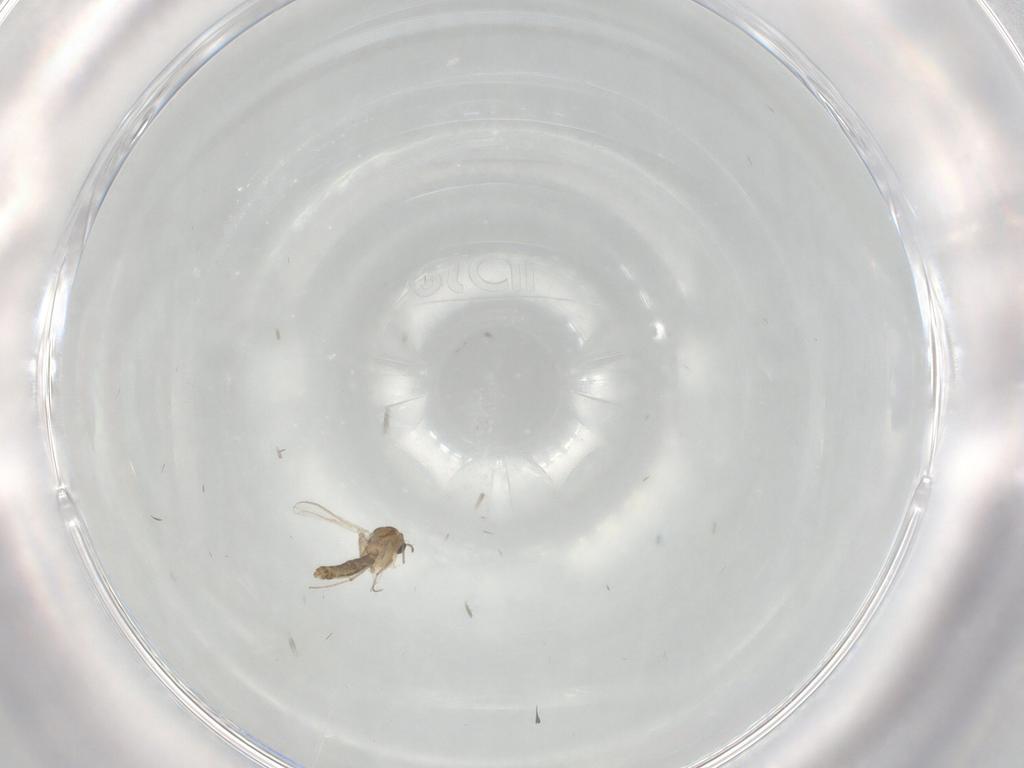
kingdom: Animalia
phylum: Arthropoda
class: Insecta
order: Diptera
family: Chironomidae
